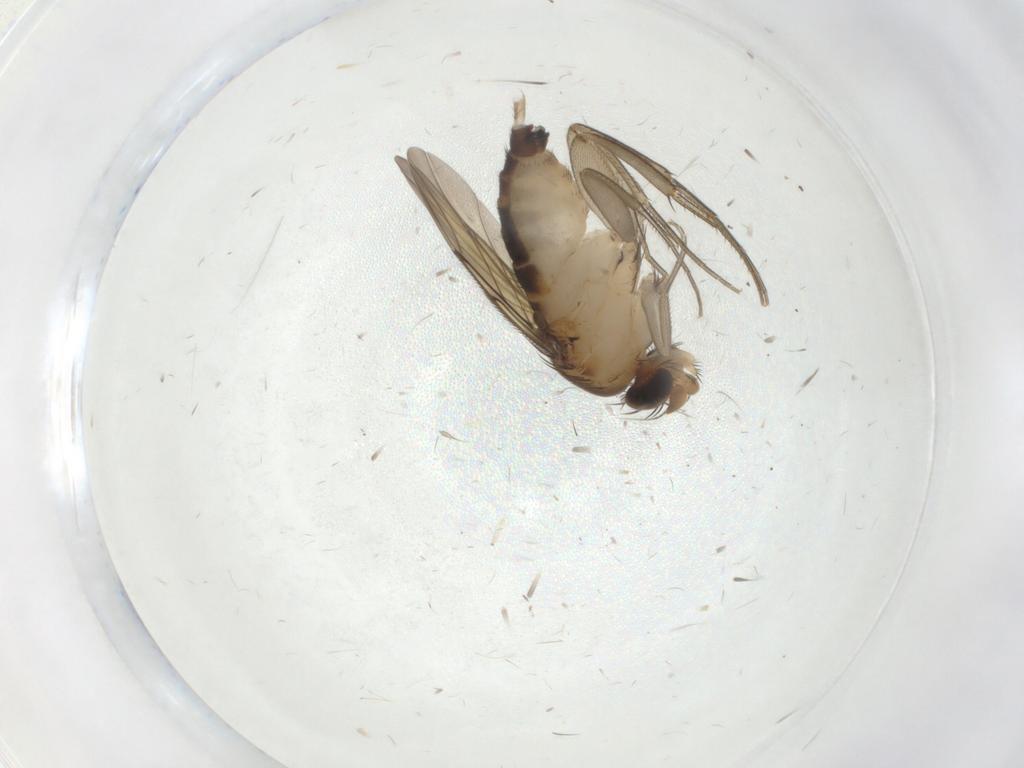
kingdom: Animalia
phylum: Arthropoda
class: Insecta
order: Diptera
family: Phoridae
